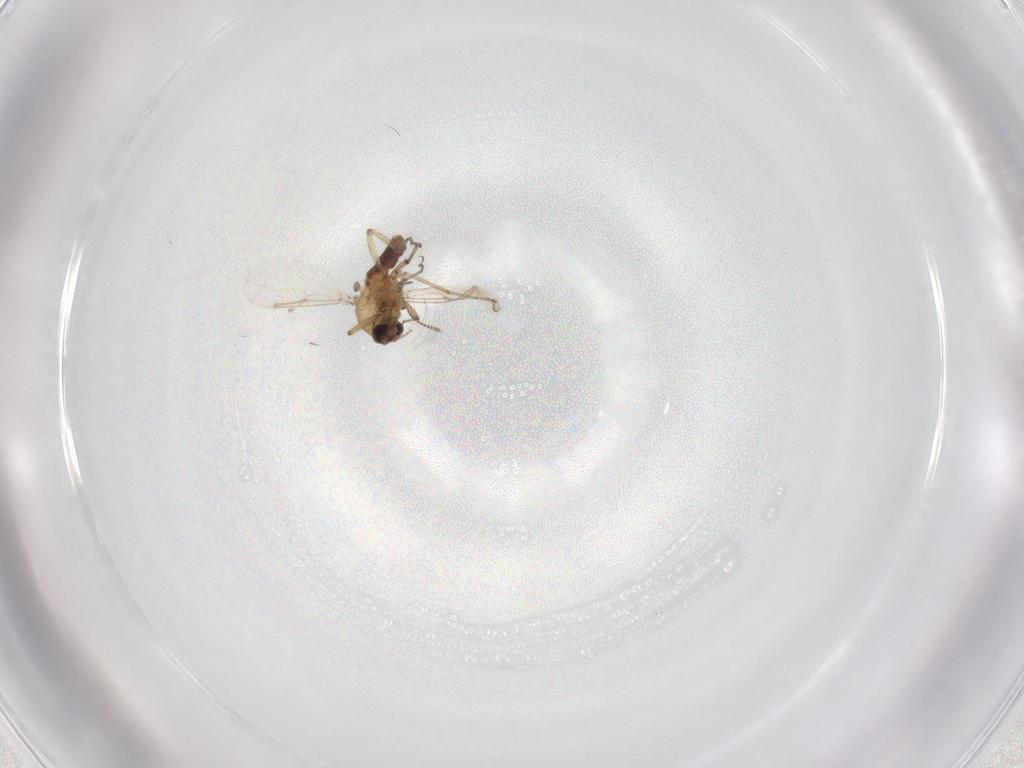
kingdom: Animalia
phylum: Arthropoda
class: Insecta
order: Diptera
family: Ceratopogonidae
